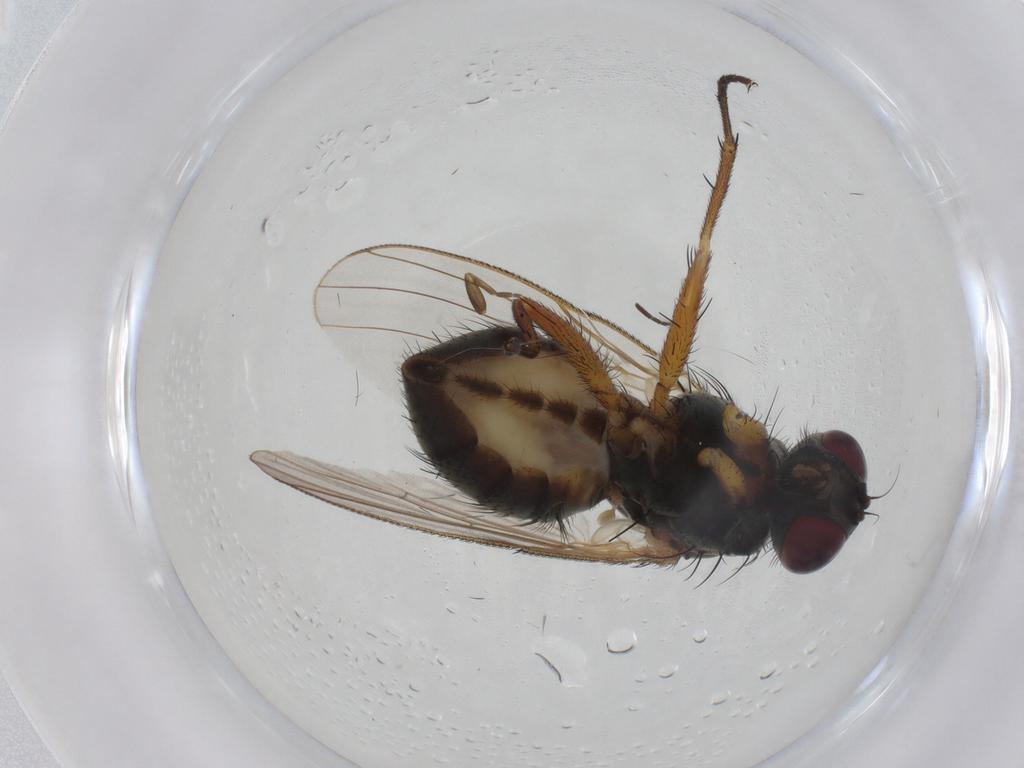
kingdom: Animalia
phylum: Arthropoda
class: Insecta
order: Diptera
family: Muscidae
